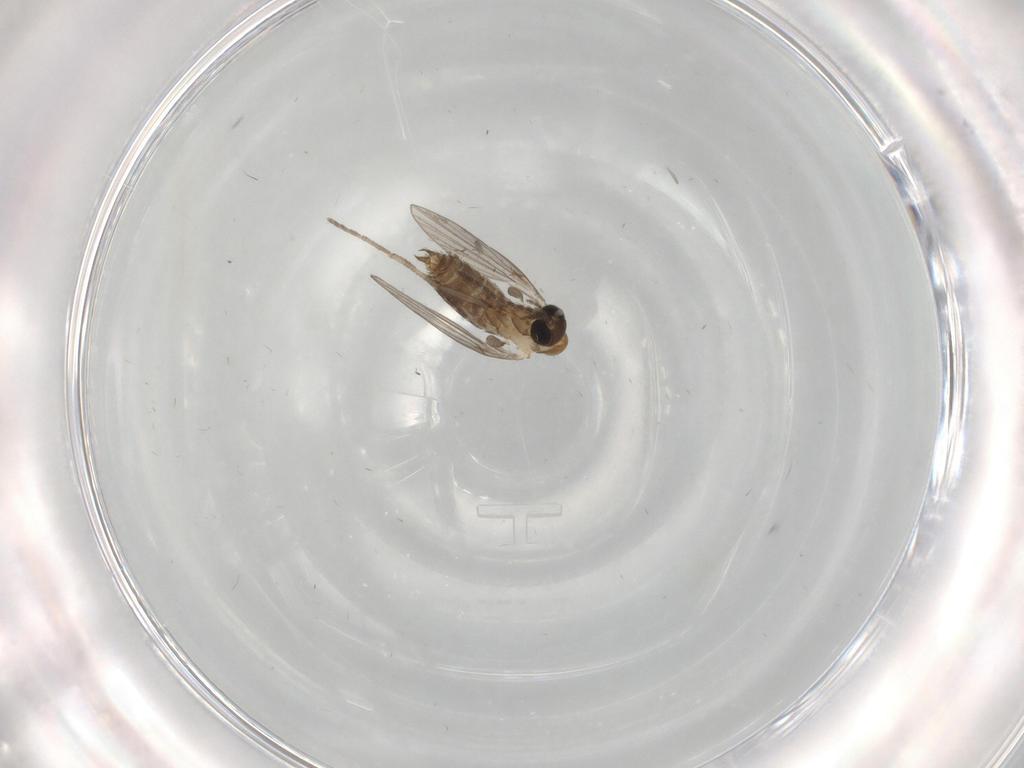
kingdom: Animalia
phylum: Arthropoda
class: Insecta
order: Diptera
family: Psychodidae
